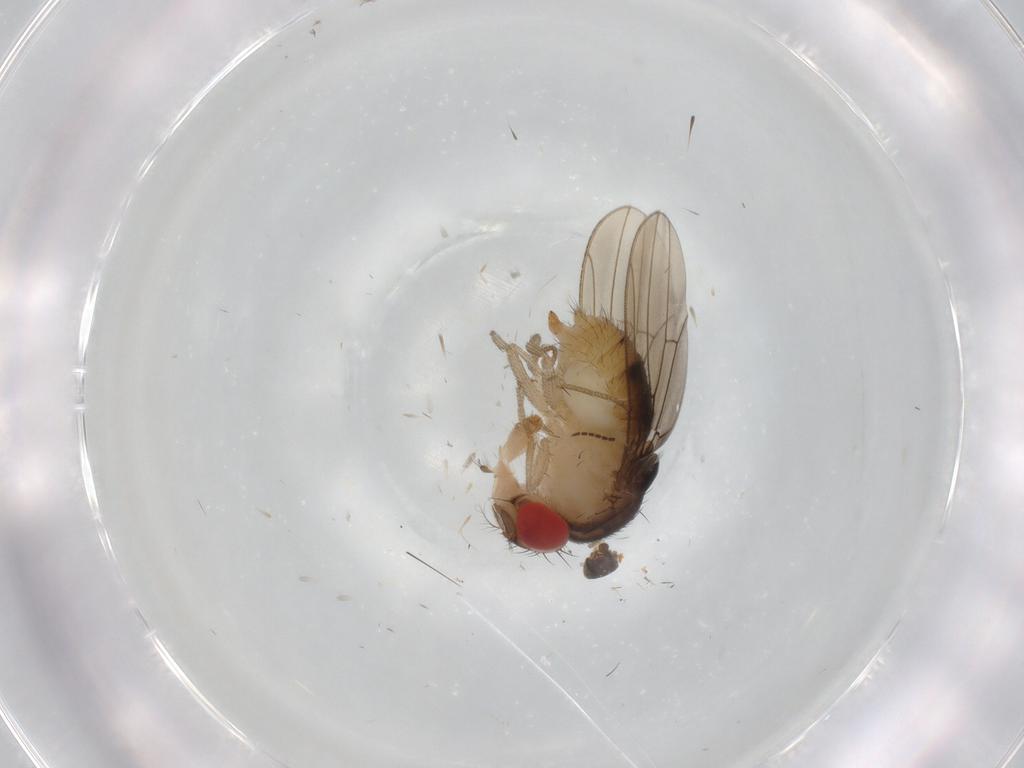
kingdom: Animalia
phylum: Arthropoda
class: Insecta
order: Diptera
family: Drosophilidae
